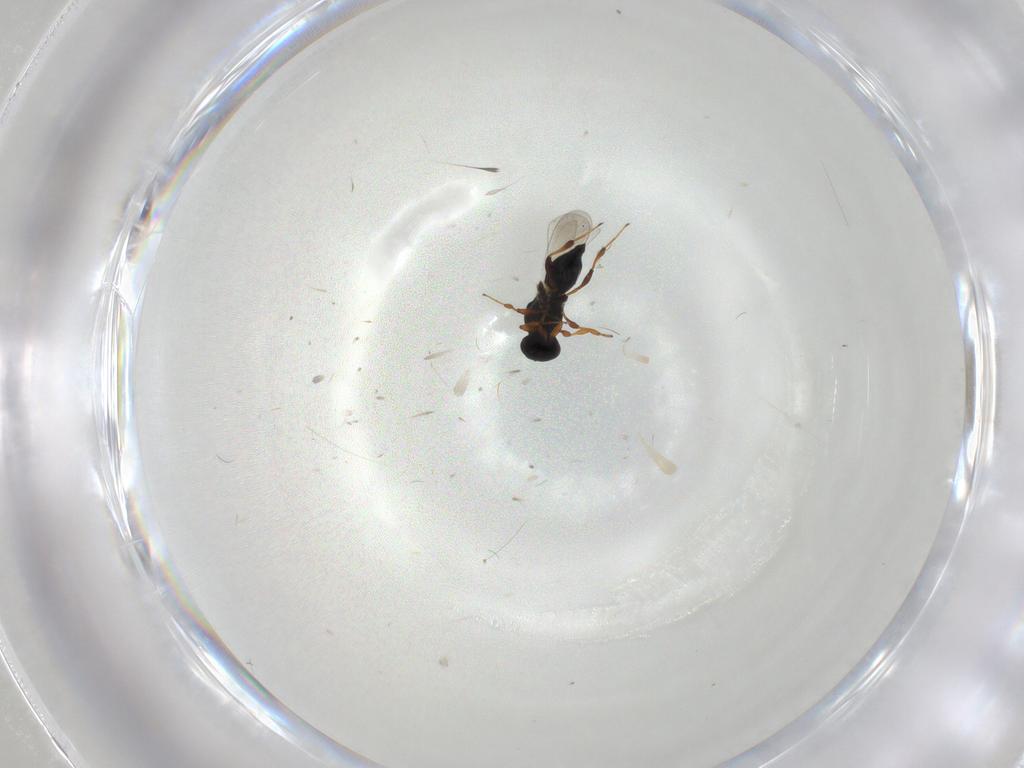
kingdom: Animalia
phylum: Arthropoda
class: Insecta
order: Hymenoptera
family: Platygastridae
